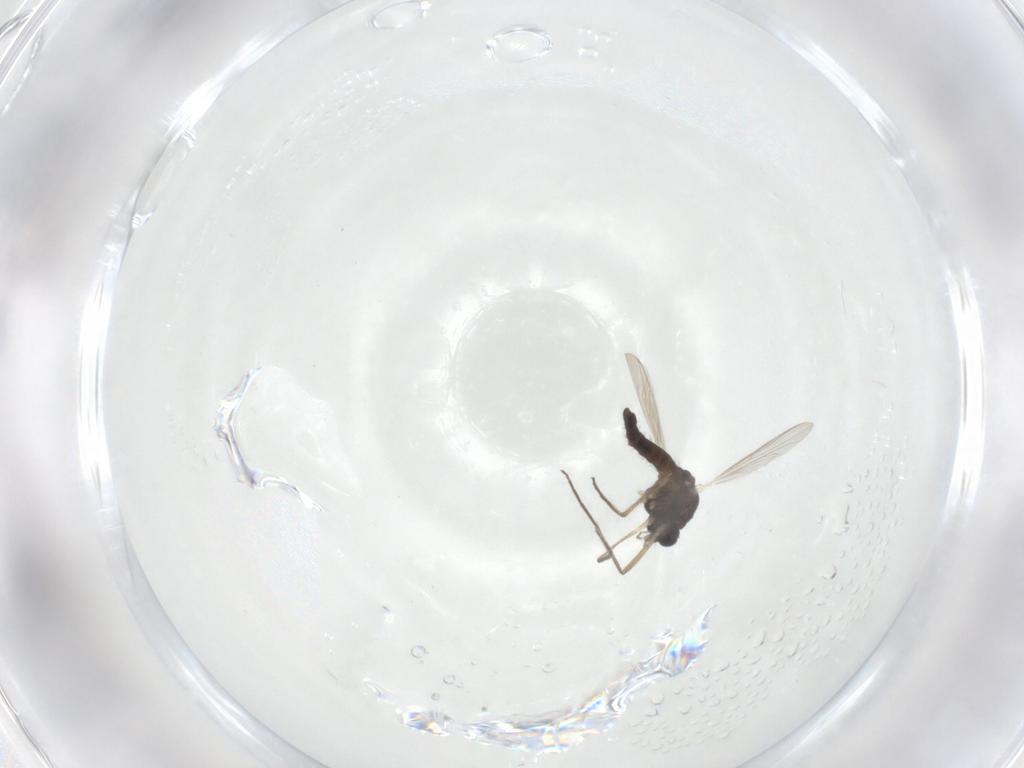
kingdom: Animalia
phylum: Arthropoda
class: Insecta
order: Diptera
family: Chironomidae
